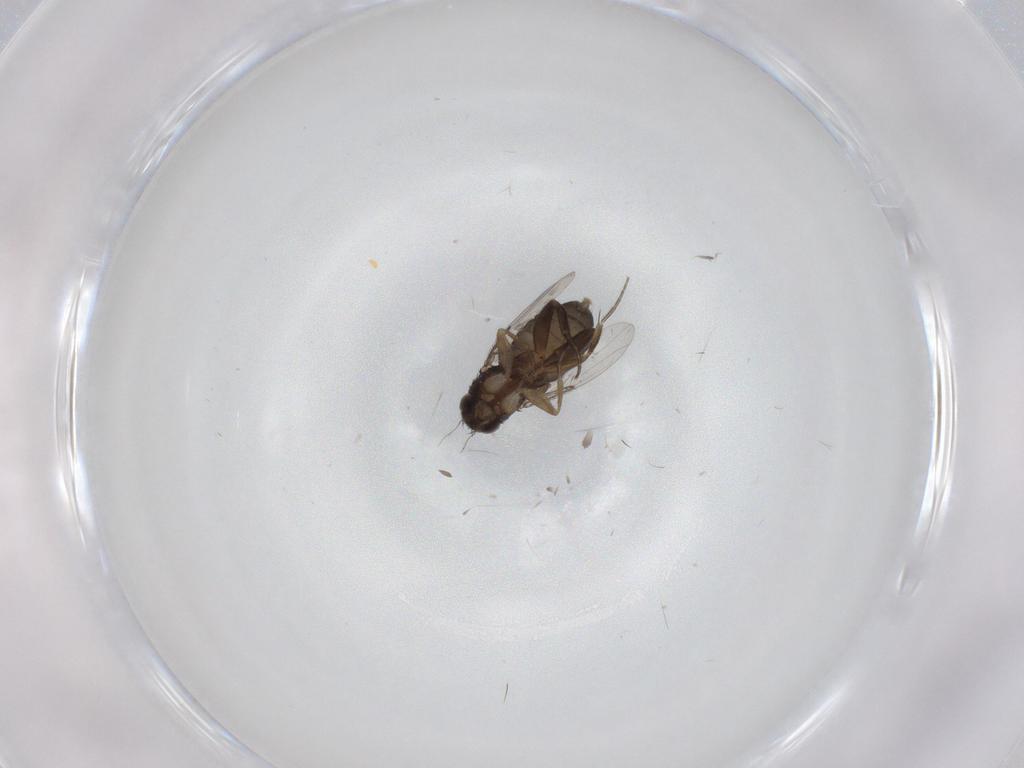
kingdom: Animalia
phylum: Arthropoda
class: Insecta
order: Diptera
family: Phoridae
